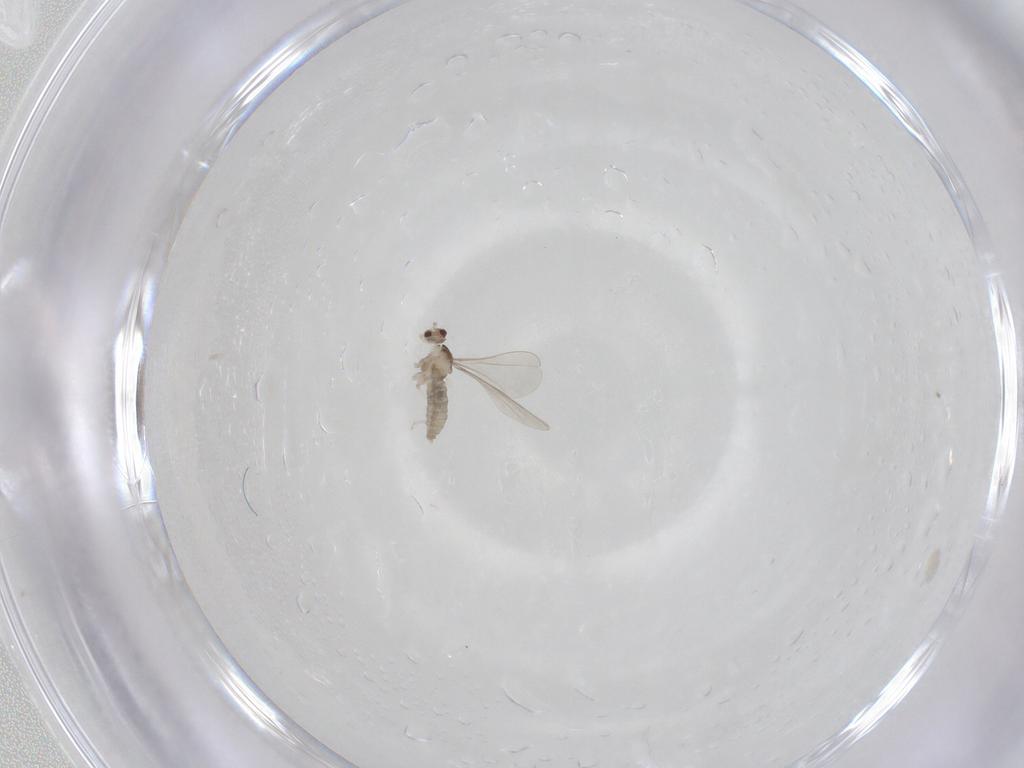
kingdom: Animalia
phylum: Arthropoda
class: Insecta
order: Diptera
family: Cecidomyiidae
